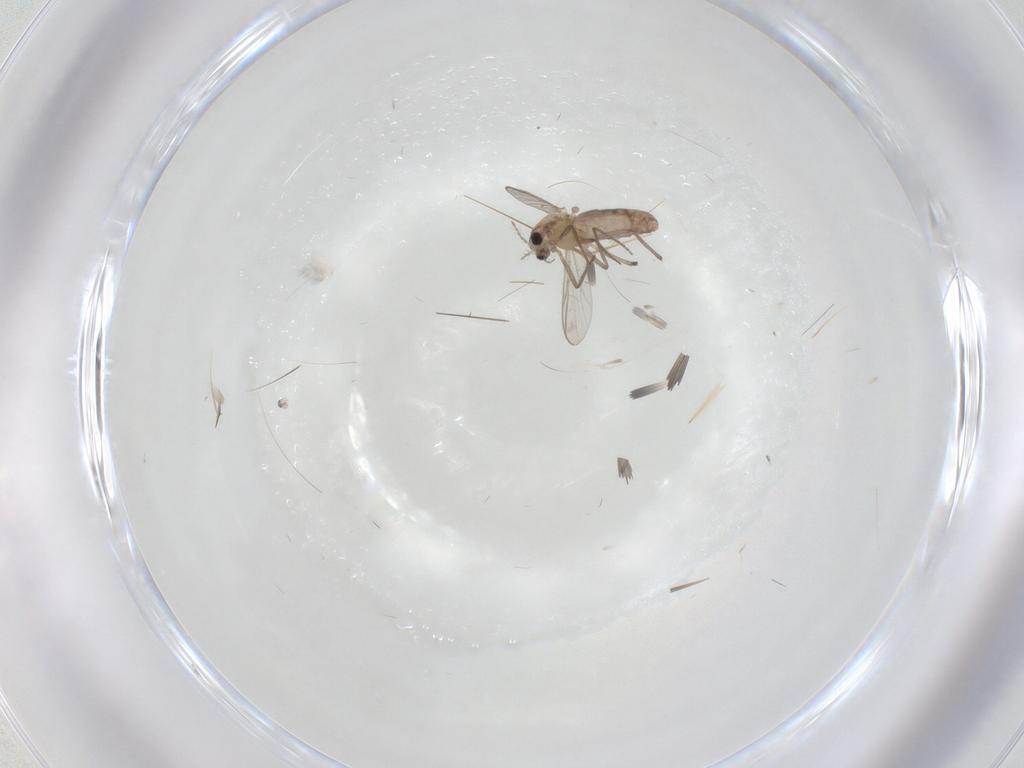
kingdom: Animalia
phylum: Arthropoda
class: Insecta
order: Diptera
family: Chironomidae
